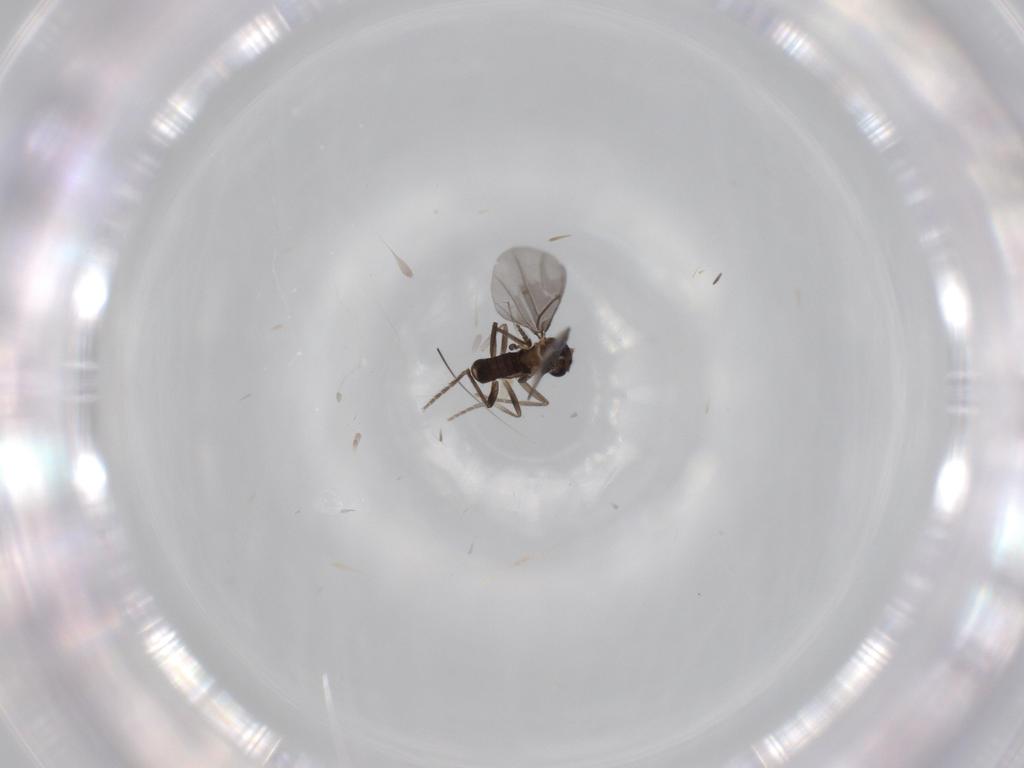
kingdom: Animalia
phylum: Arthropoda
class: Insecta
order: Diptera
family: Phoridae
